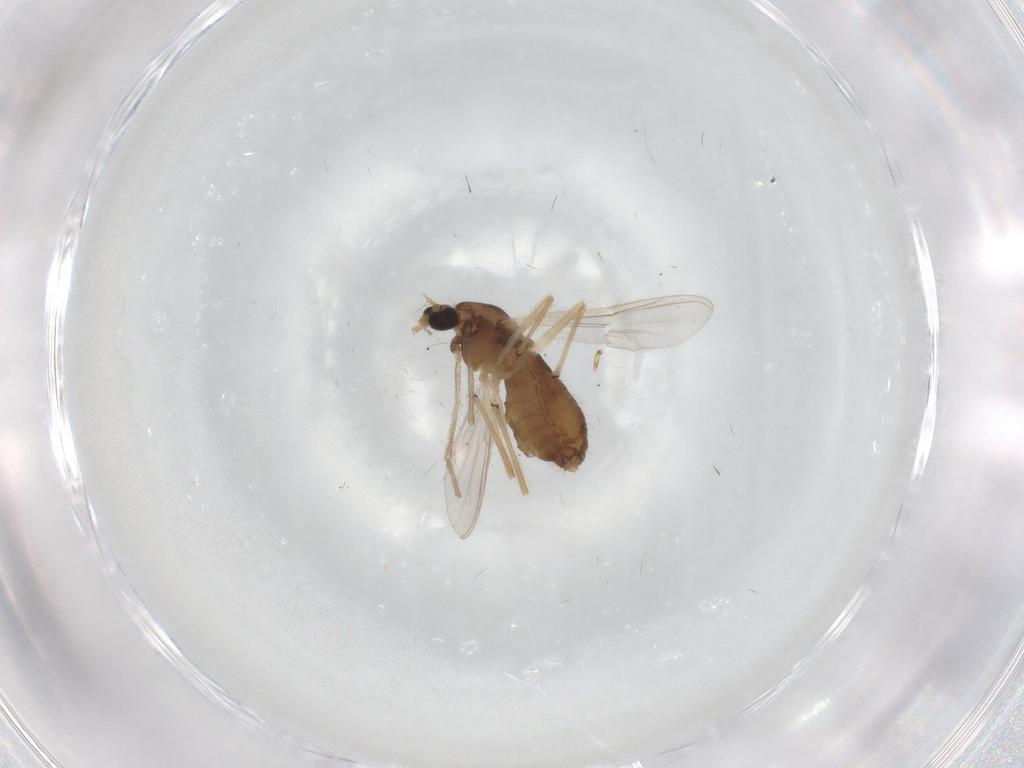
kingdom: Animalia
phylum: Arthropoda
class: Insecta
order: Diptera
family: Chironomidae
